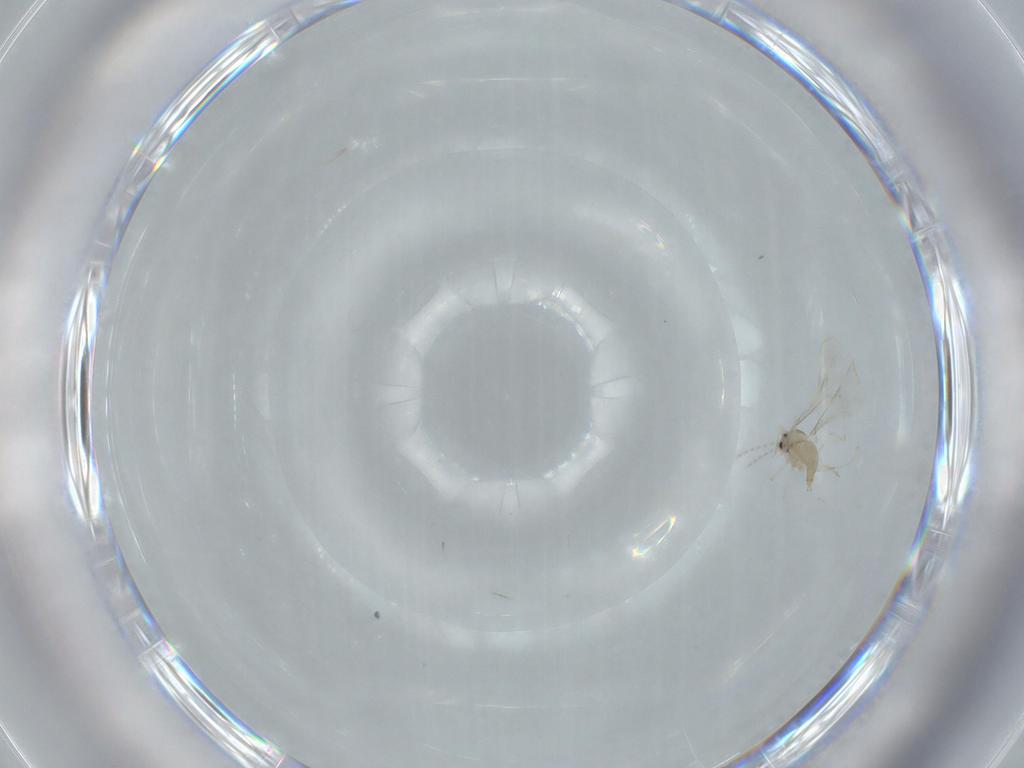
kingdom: Animalia
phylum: Arthropoda
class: Insecta
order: Diptera
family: Cecidomyiidae
